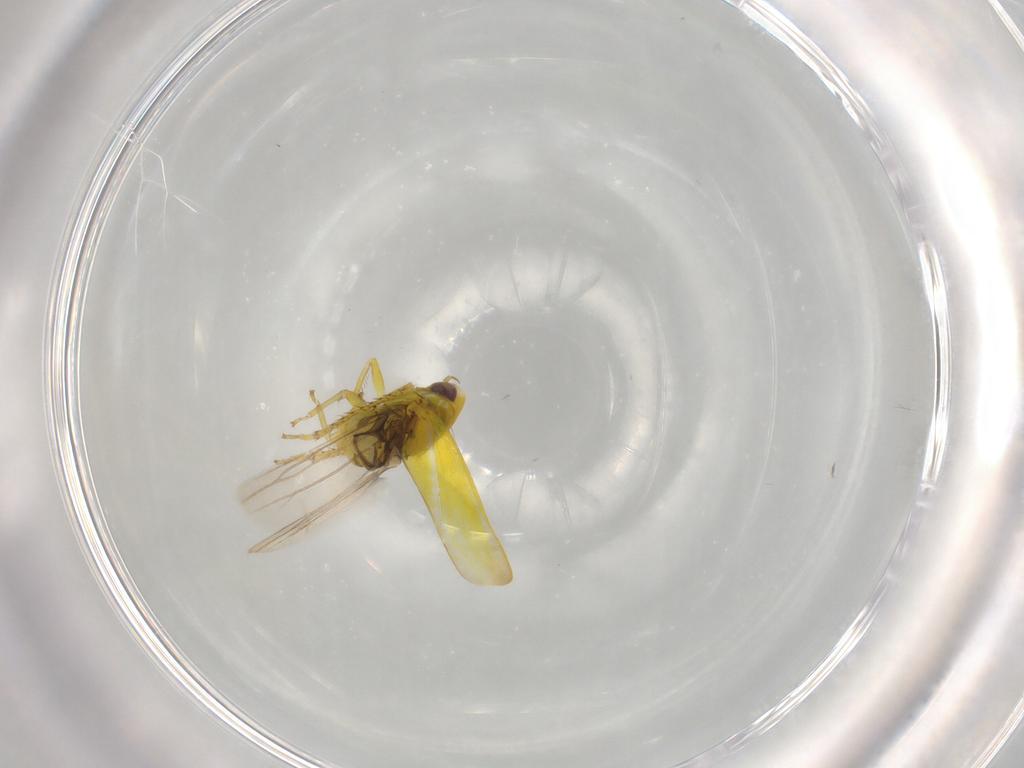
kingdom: Animalia
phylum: Arthropoda
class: Insecta
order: Hemiptera
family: Cicadellidae
